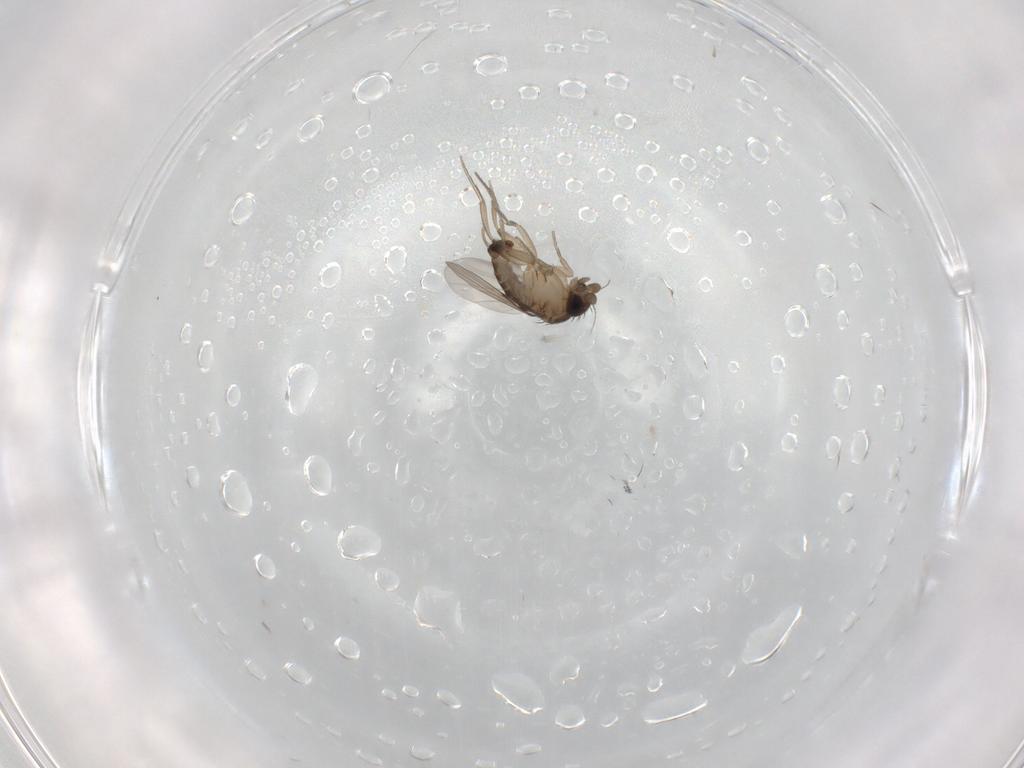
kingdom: Animalia
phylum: Arthropoda
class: Insecta
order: Diptera
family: Phoridae
